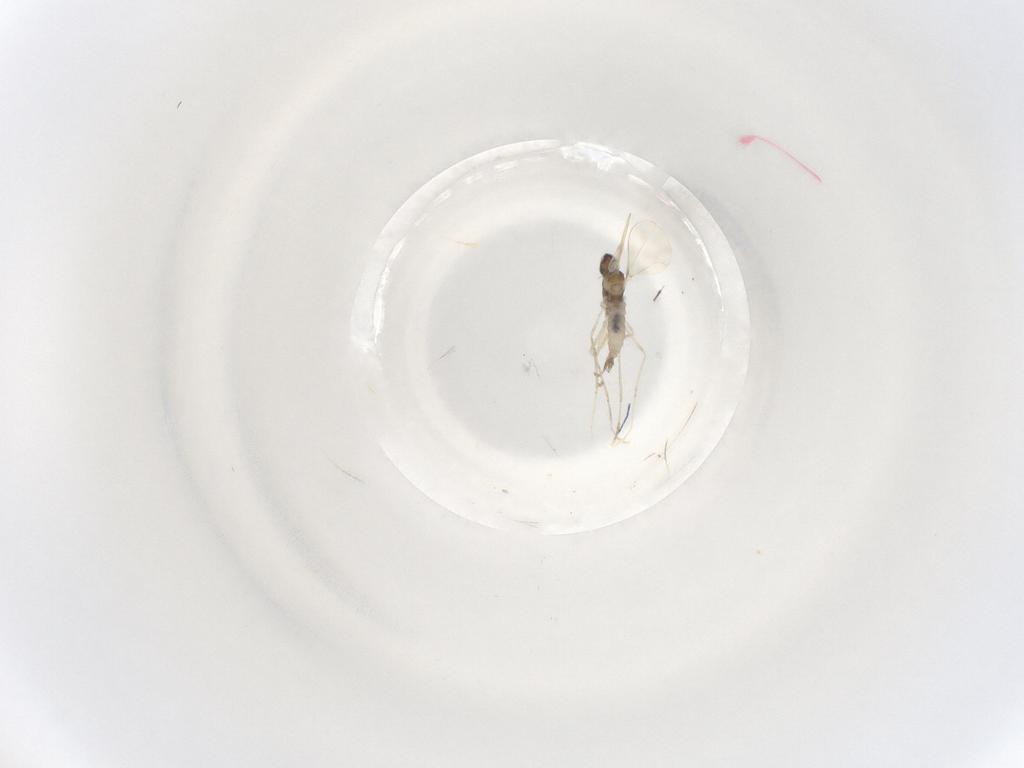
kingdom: Animalia
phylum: Arthropoda
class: Insecta
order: Diptera
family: Cecidomyiidae
